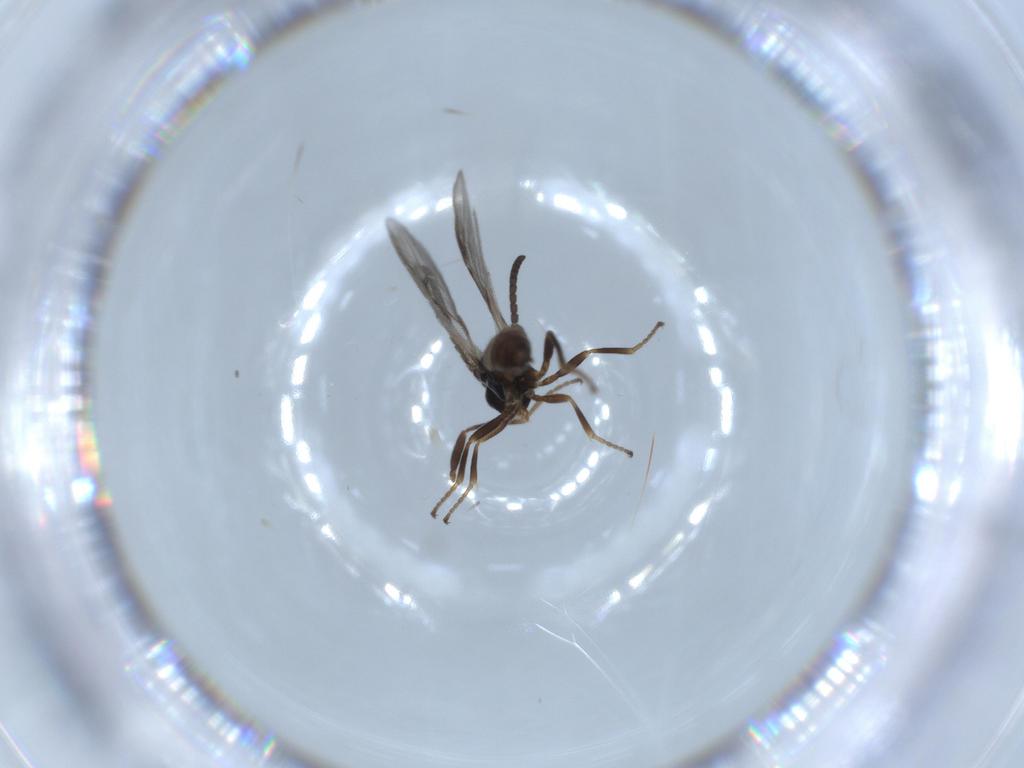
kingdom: Animalia
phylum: Arthropoda
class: Insecta
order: Hymenoptera
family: Braconidae
